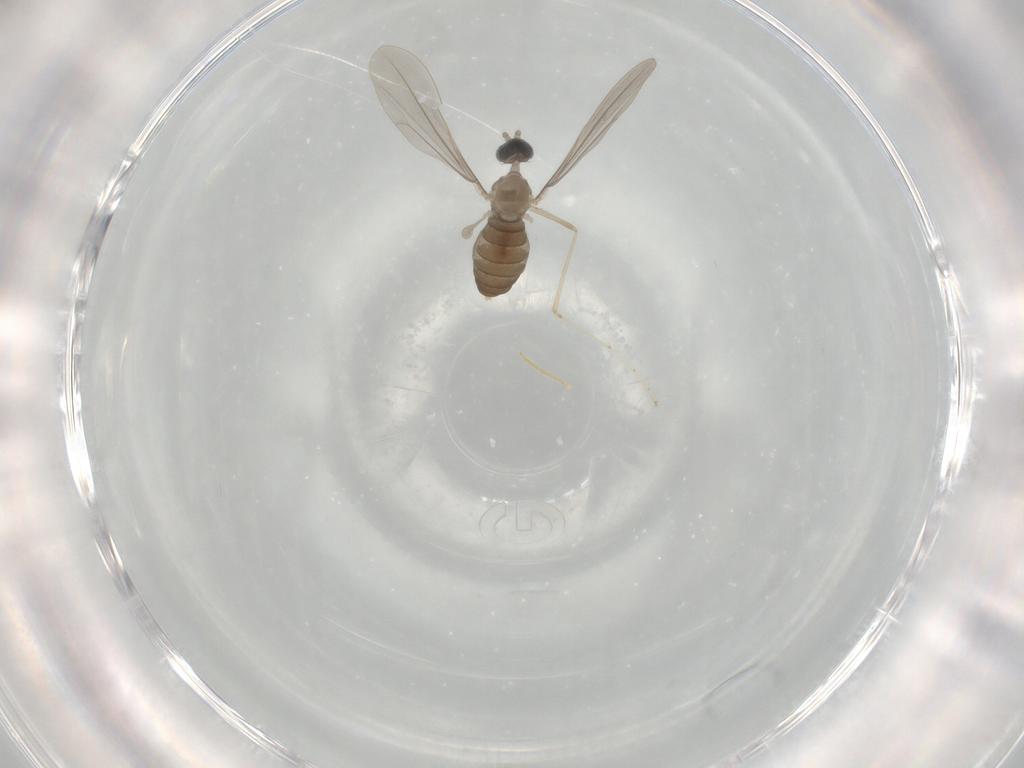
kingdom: Animalia
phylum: Arthropoda
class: Insecta
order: Diptera
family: Cecidomyiidae
